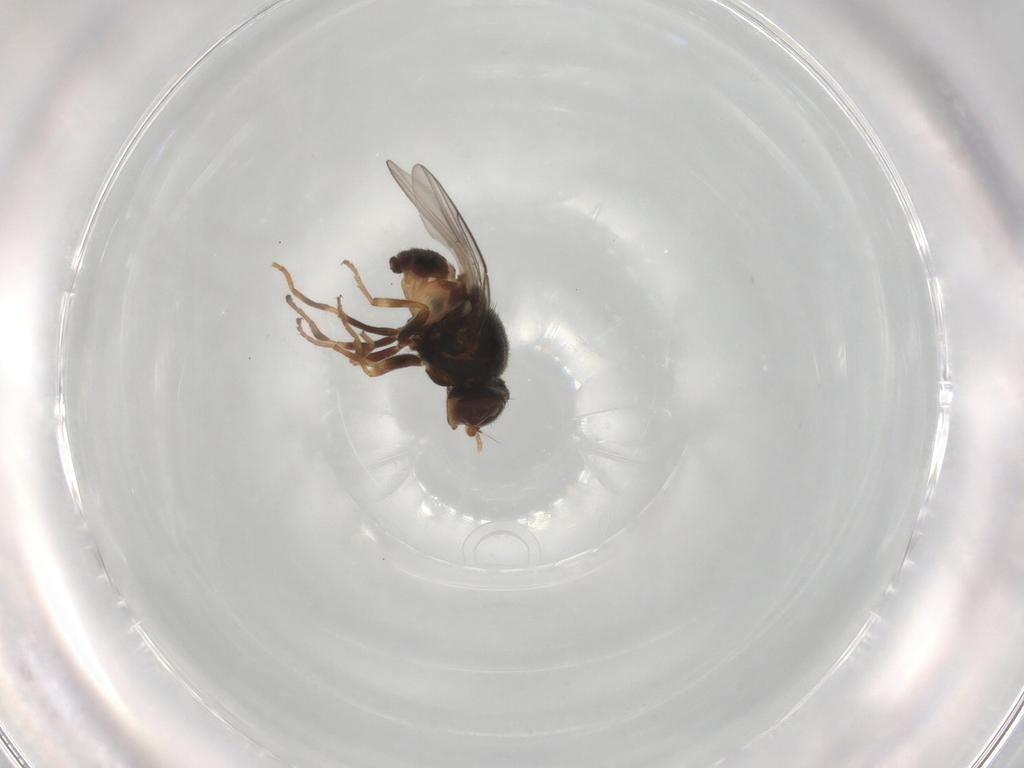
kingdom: Animalia
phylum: Arthropoda
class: Insecta
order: Diptera
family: Chloropidae
